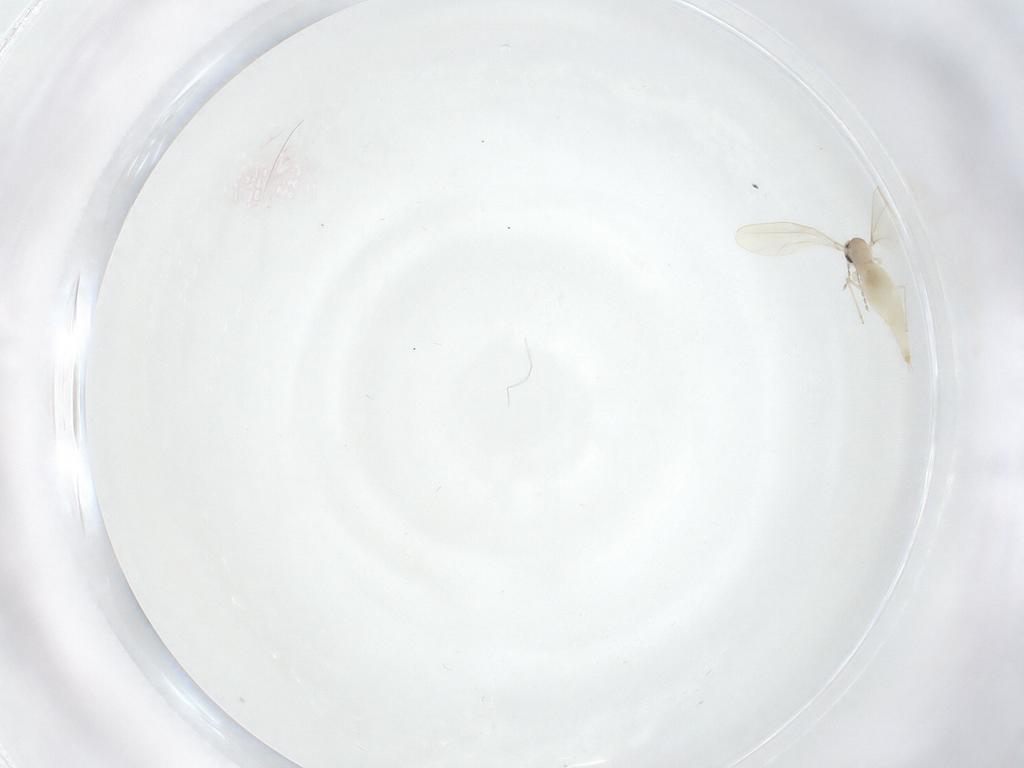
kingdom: Animalia
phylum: Arthropoda
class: Insecta
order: Diptera
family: Cecidomyiidae
